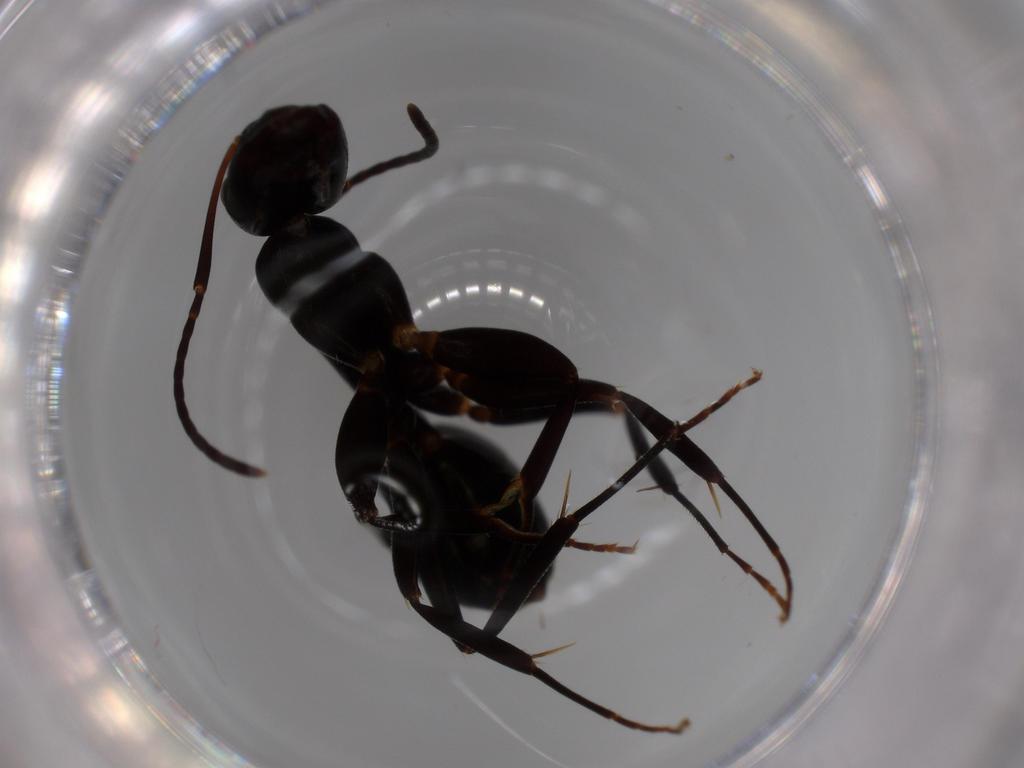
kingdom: Animalia
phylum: Arthropoda
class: Insecta
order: Hymenoptera
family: Formicidae
